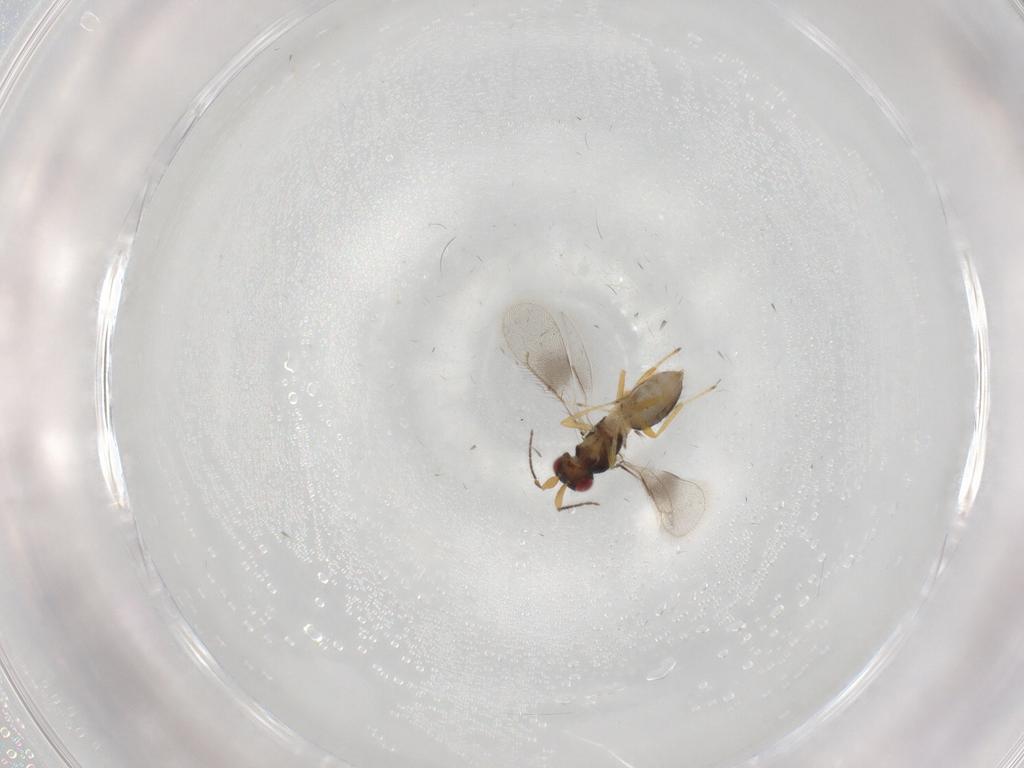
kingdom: Animalia
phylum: Arthropoda
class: Insecta
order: Hymenoptera
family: Eulophidae
